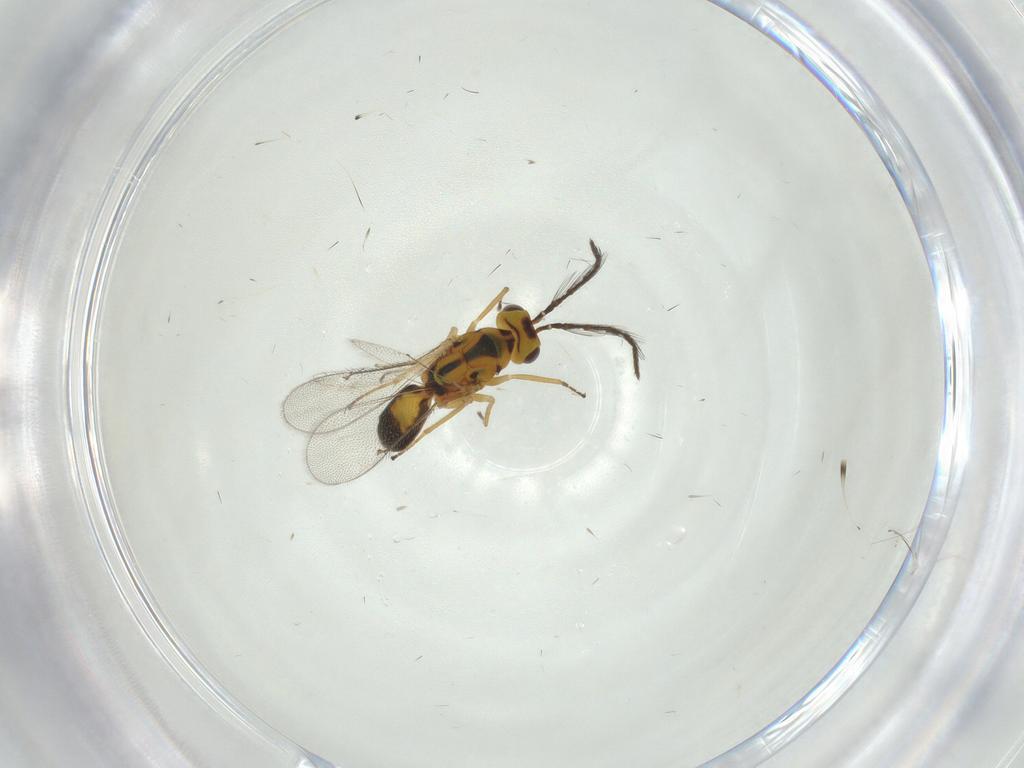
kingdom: Animalia
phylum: Arthropoda
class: Insecta
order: Hymenoptera
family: Eulophidae
